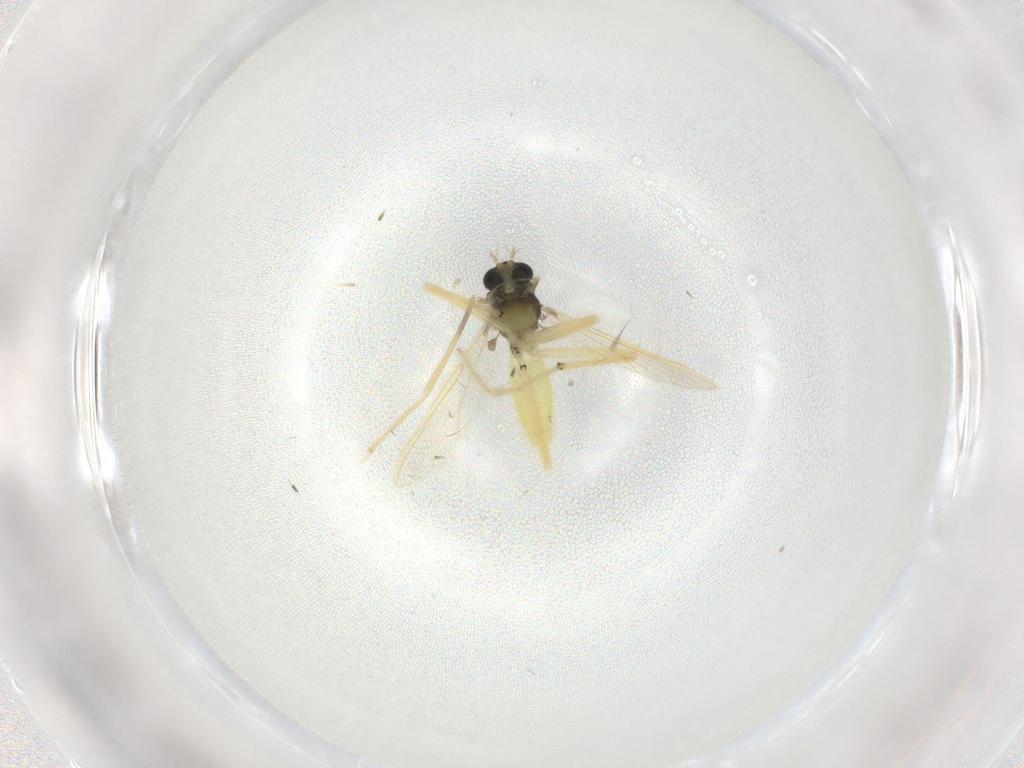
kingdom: Animalia
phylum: Arthropoda
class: Insecta
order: Diptera
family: Chironomidae
